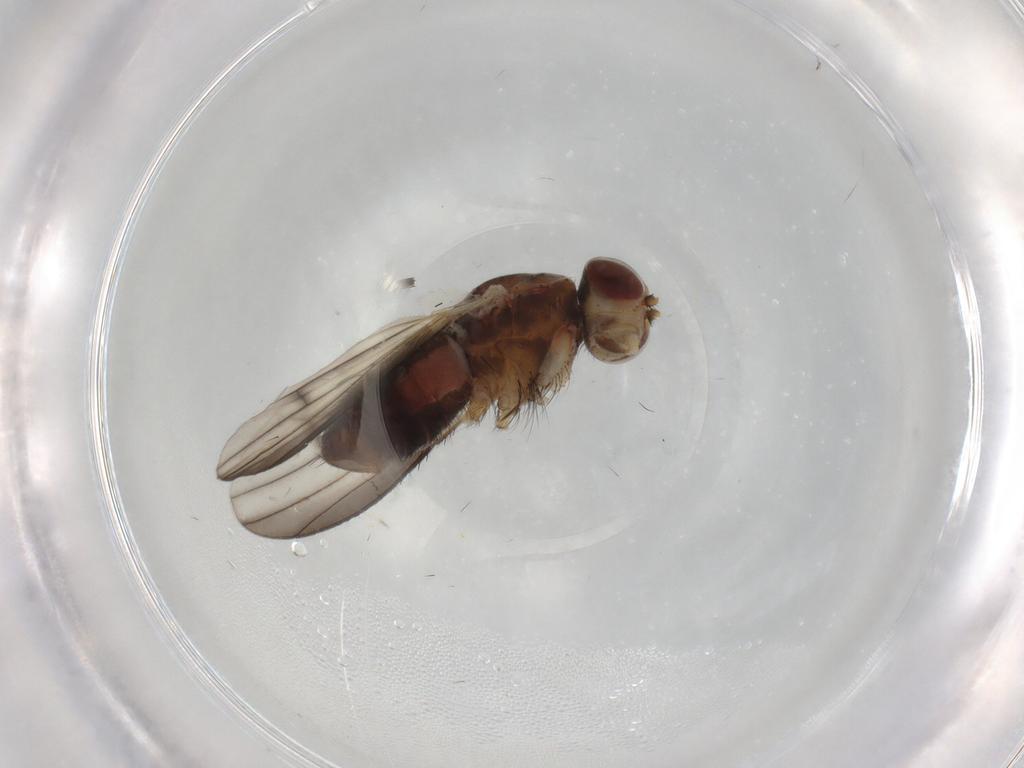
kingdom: Animalia
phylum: Arthropoda
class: Insecta
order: Diptera
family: Heleomyzidae
